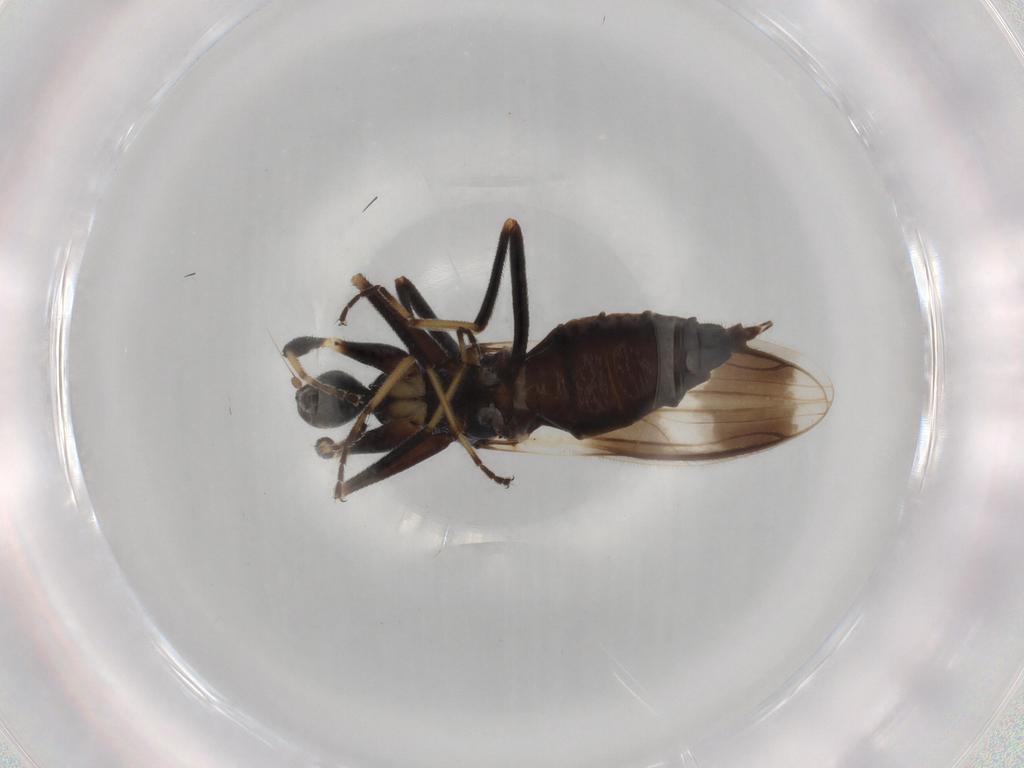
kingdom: Animalia
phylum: Arthropoda
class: Insecta
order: Diptera
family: Hybotidae
